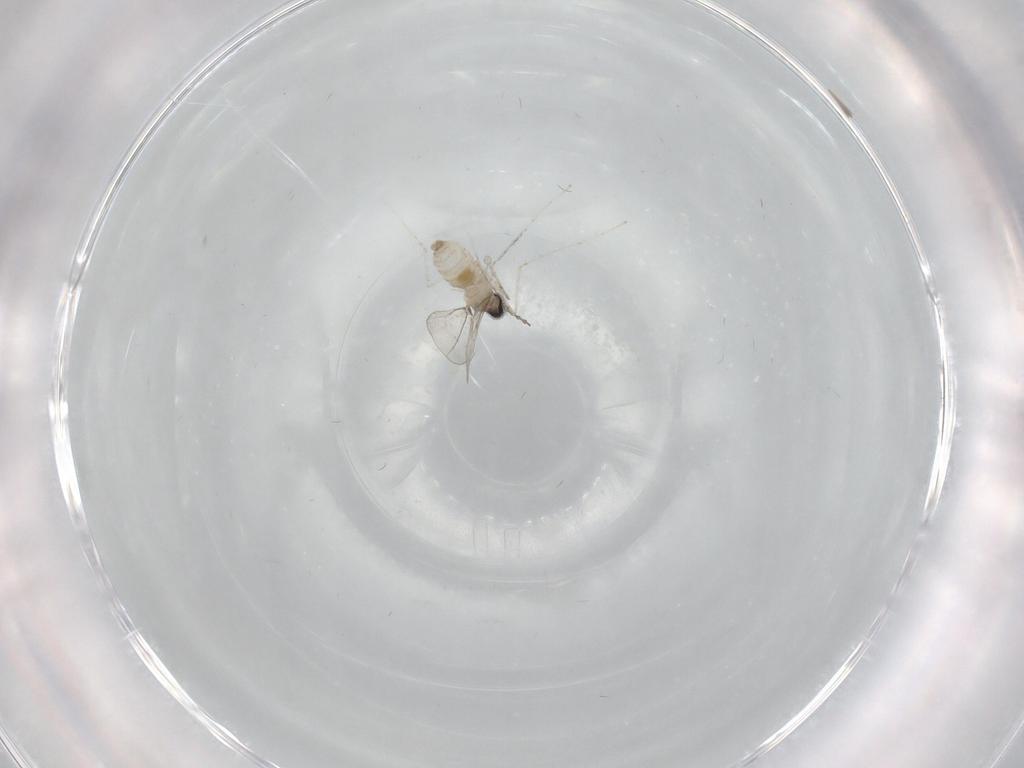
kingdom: Animalia
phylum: Arthropoda
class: Insecta
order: Diptera
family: Cecidomyiidae
